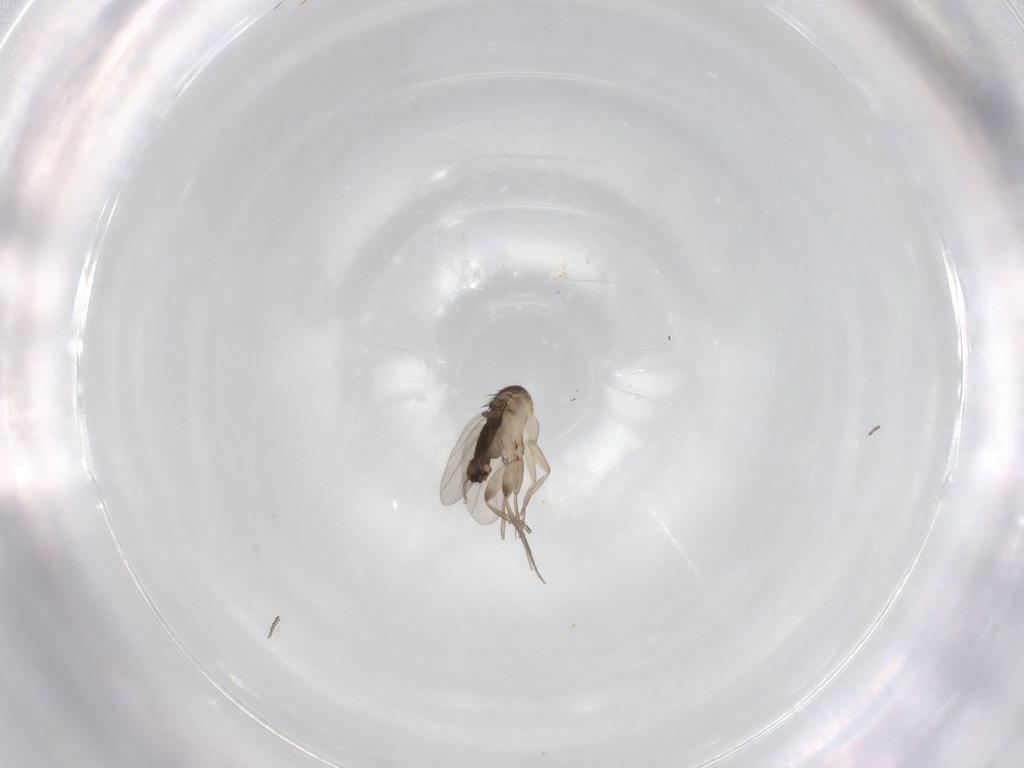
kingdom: Animalia
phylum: Arthropoda
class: Insecta
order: Diptera
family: Phoridae
